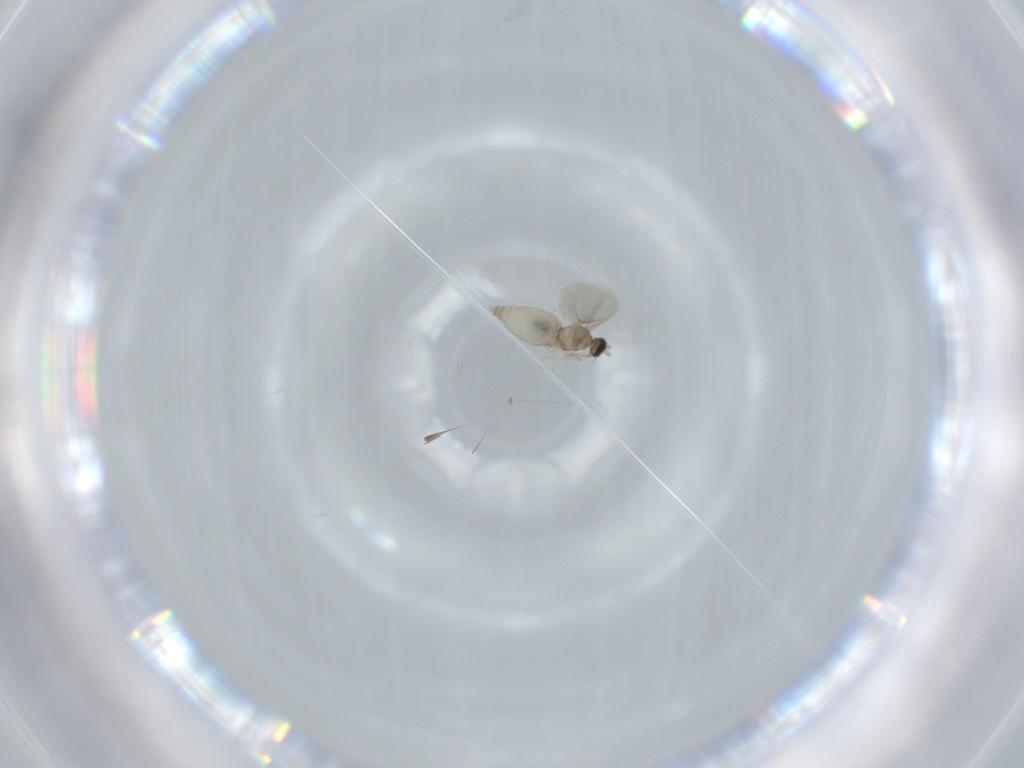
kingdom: Animalia
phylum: Arthropoda
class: Insecta
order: Diptera
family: Cecidomyiidae
